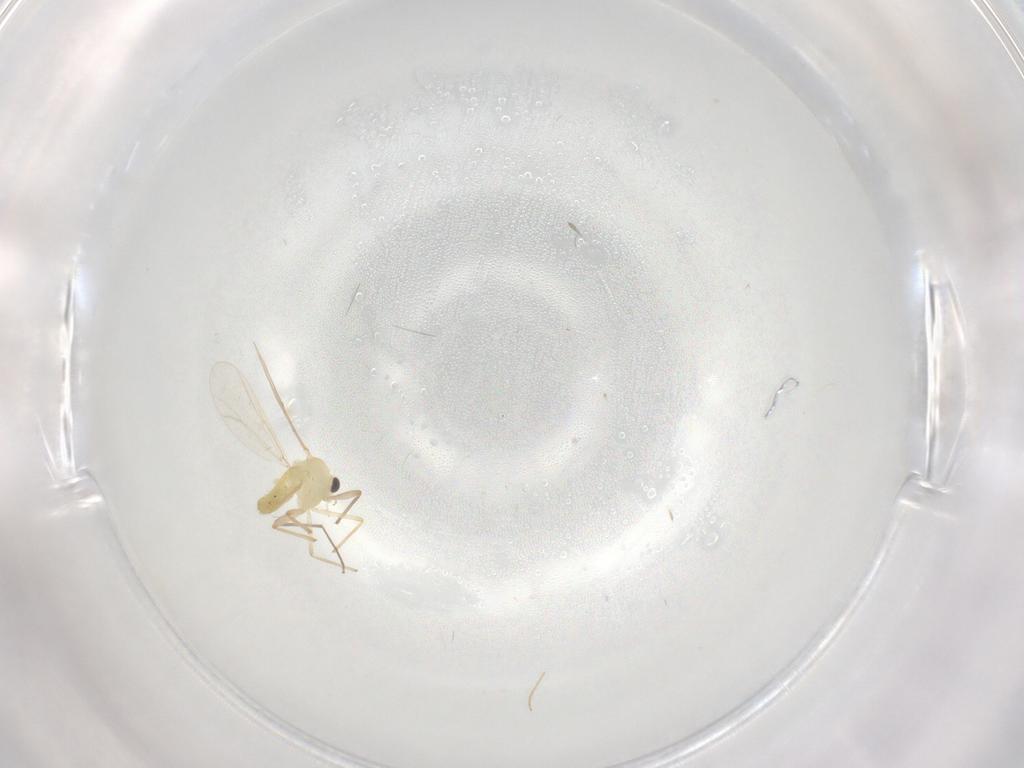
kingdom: Animalia
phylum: Arthropoda
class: Insecta
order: Diptera
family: Chironomidae
